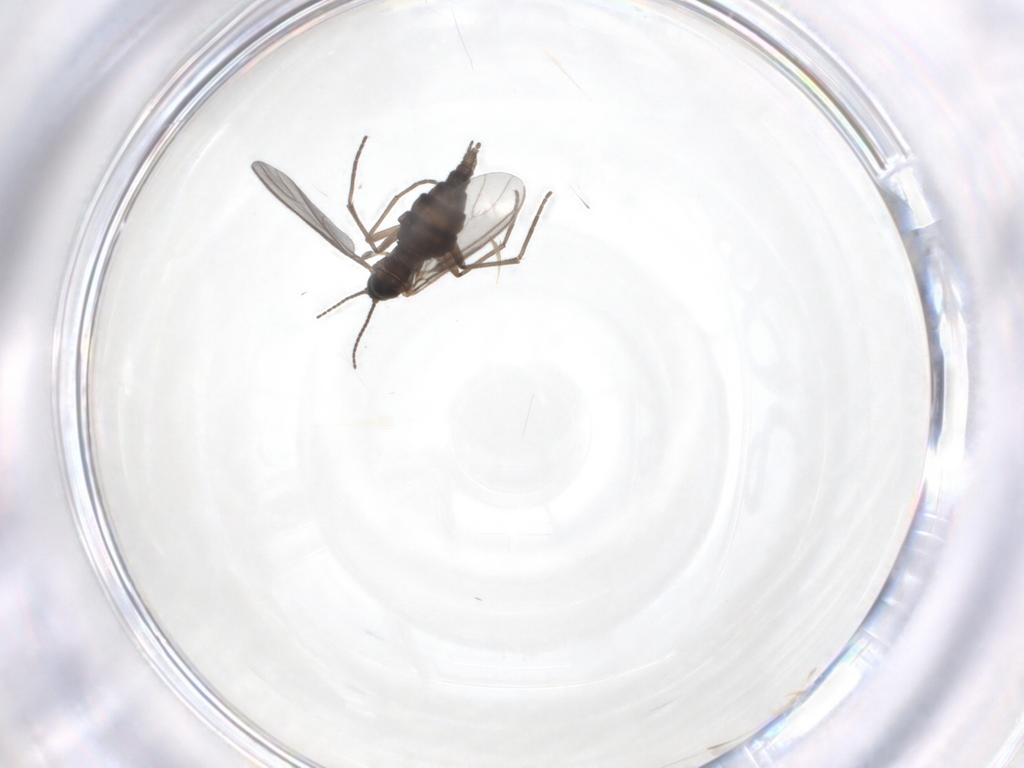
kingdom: Animalia
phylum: Arthropoda
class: Insecta
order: Diptera
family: Sciaridae
